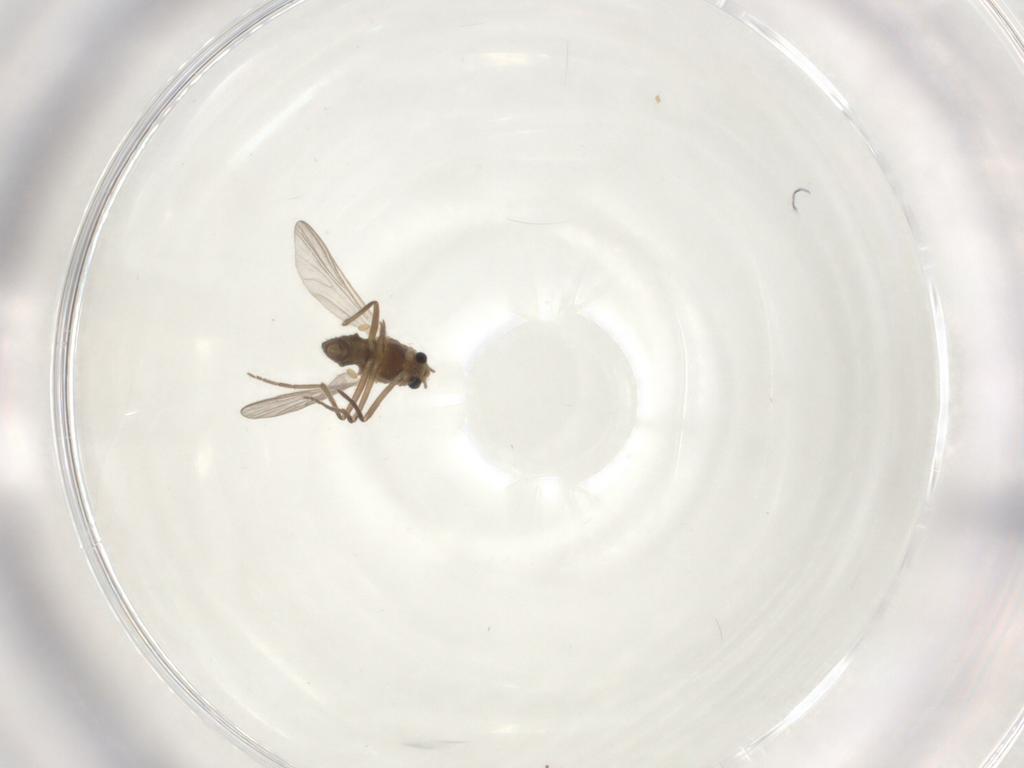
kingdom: Animalia
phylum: Arthropoda
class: Insecta
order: Diptera
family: Chironomidae
